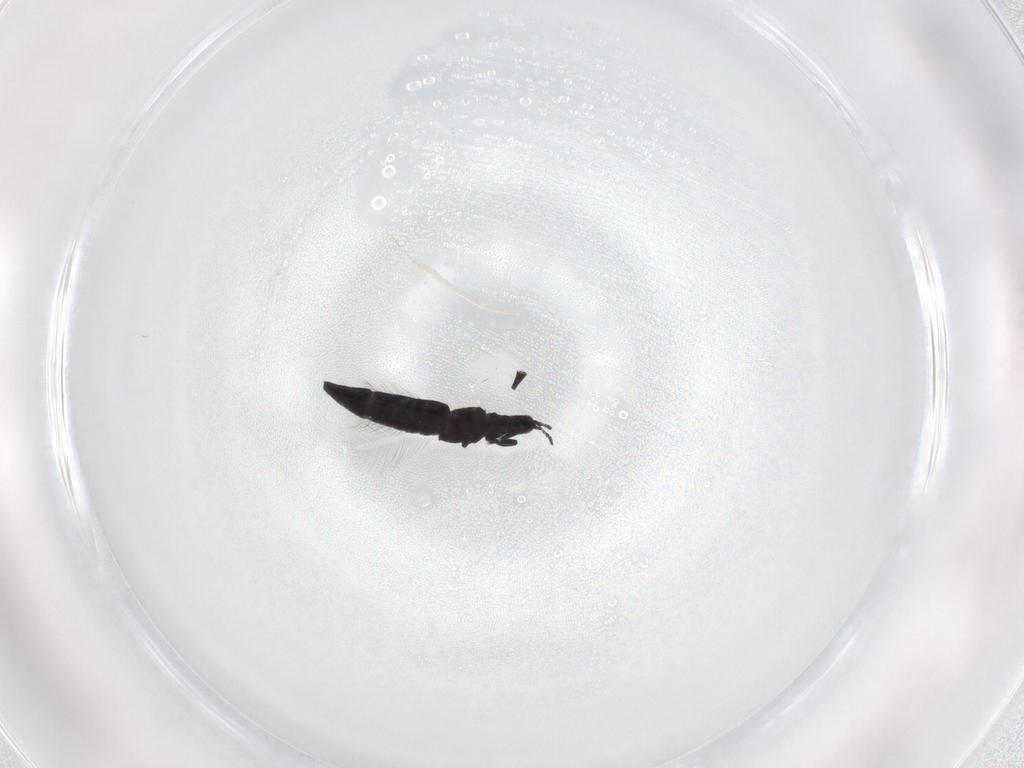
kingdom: Animalia
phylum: Arthropoda
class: Insecta
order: Thysanoptera
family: Phlaeothripidae
